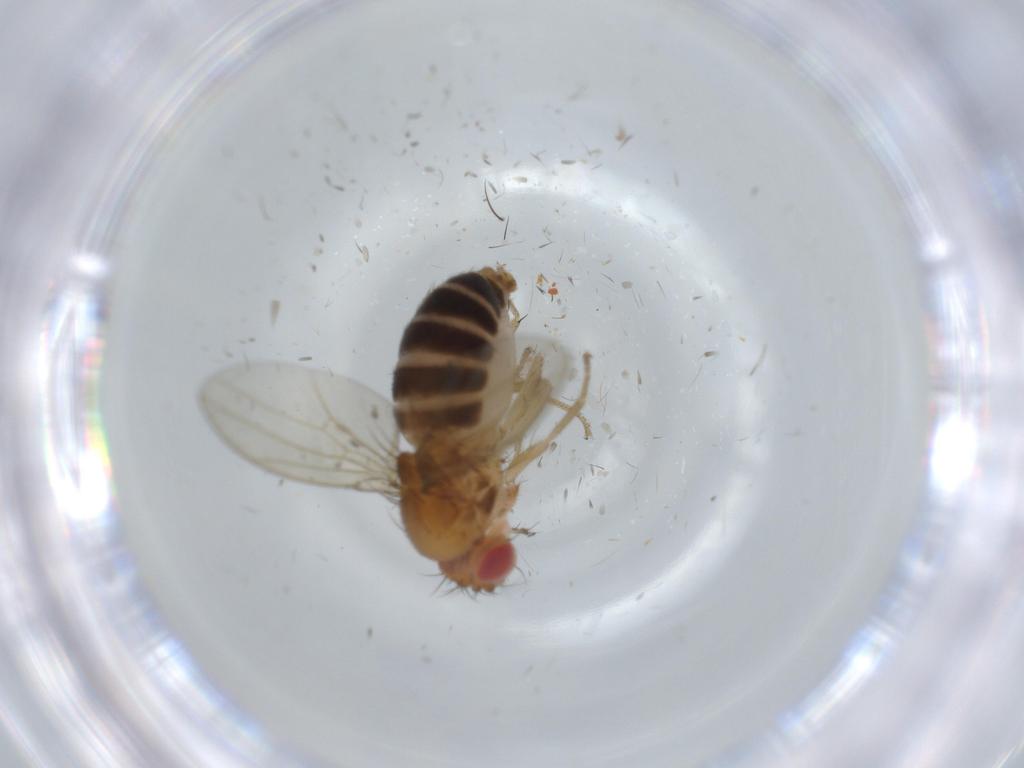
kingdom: Animalia
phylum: Arthropoda
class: Insecta
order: Diptera
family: Drosophilidae
